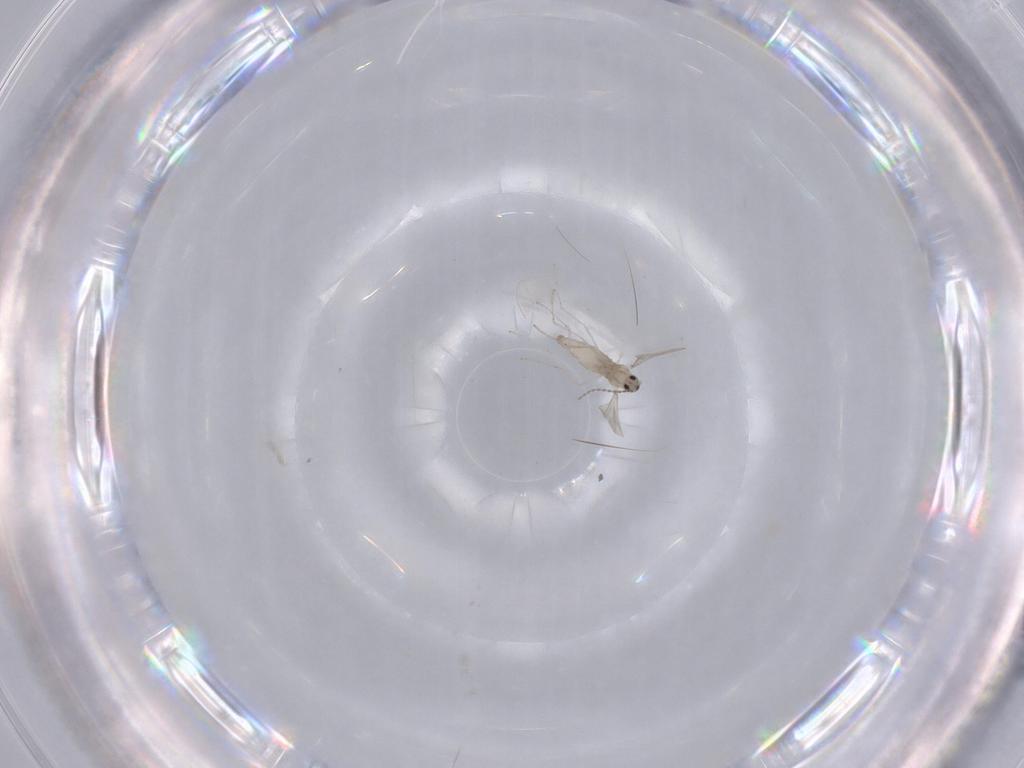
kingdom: Animalia
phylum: Arthropoda
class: Insecta
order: Diptera
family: Cecidomyiidae
